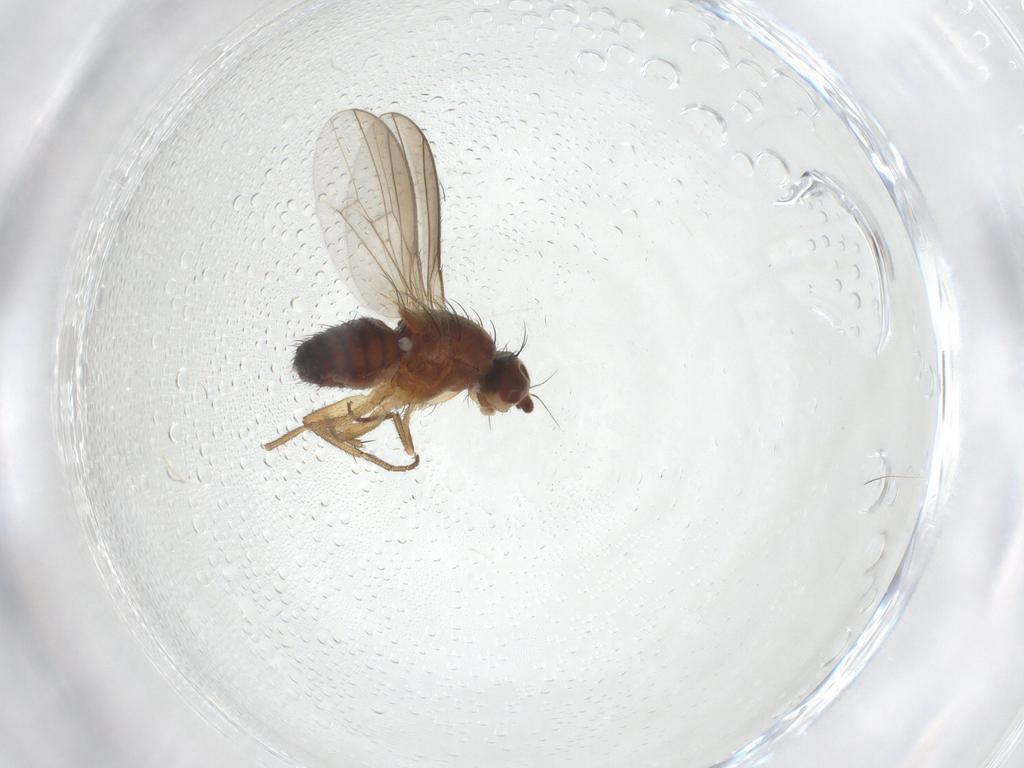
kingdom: Animalia
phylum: Arthropoda
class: Insecta
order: Diptera
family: Heleomyzidae
